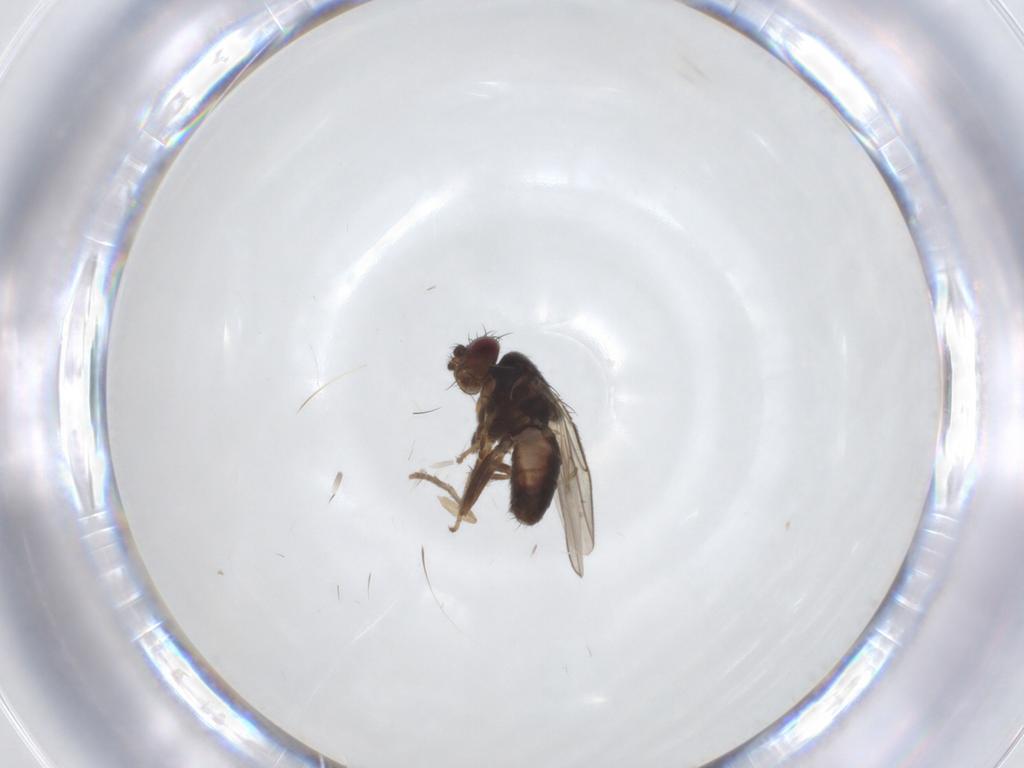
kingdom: Animalia
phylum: Arthropoda
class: Insecta
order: Diptera
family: Sphaeroceridae
